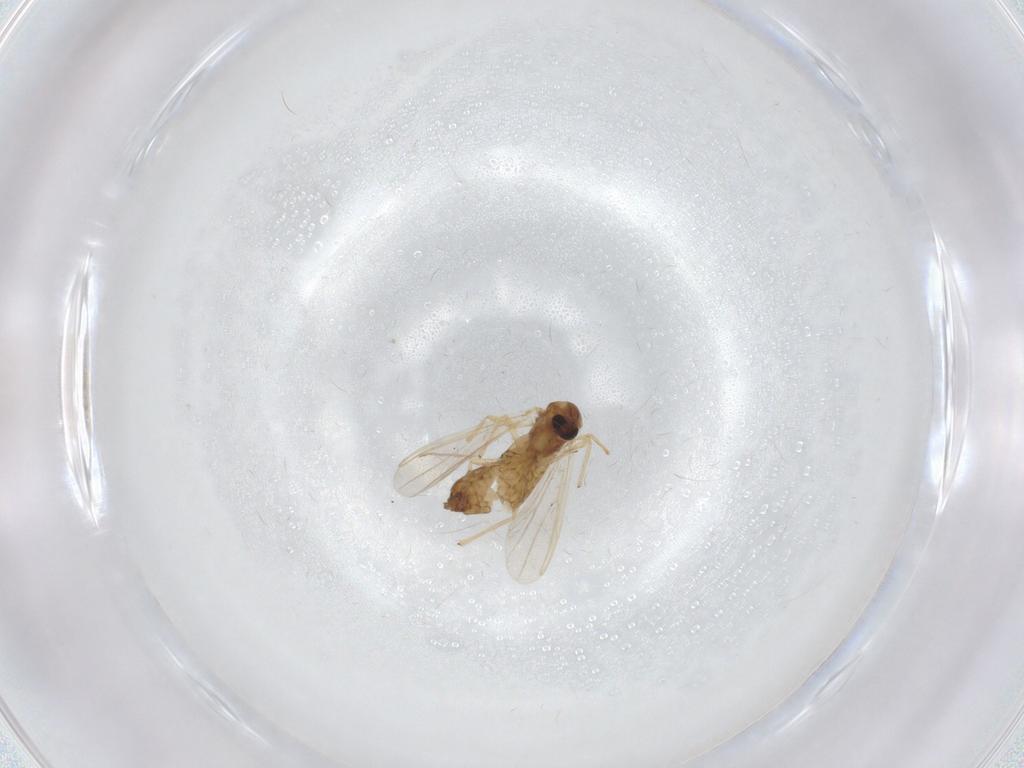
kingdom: Animalia
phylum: Arthropoda
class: Insecta
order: Diptera
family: Chironomidae
